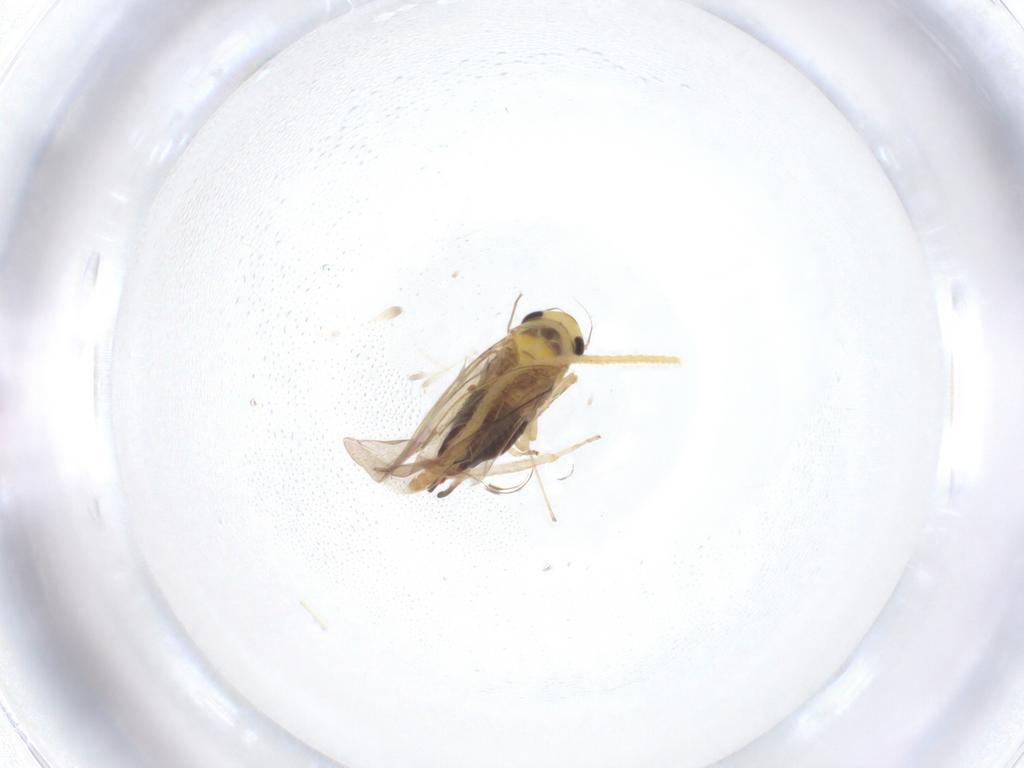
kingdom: Animalia
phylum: Arthropoda
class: Insecta
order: Hemiptera
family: Cicadellidae
